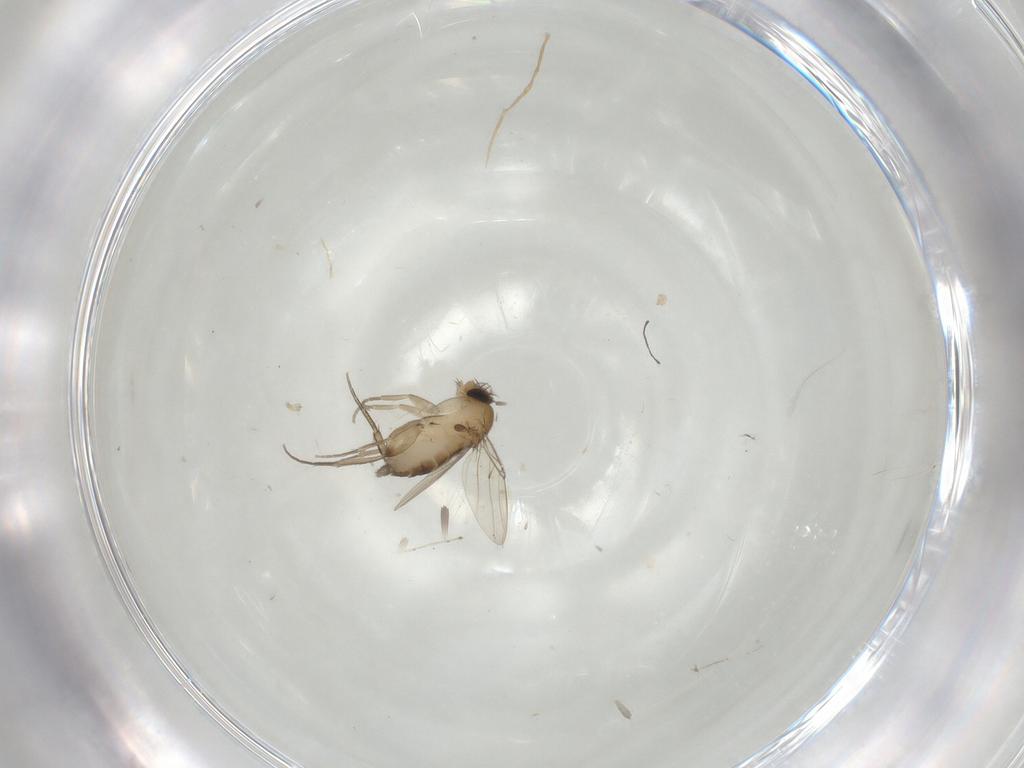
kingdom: Animalia
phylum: Arthropoda
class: Insecta
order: Diptera
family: Phoridae
